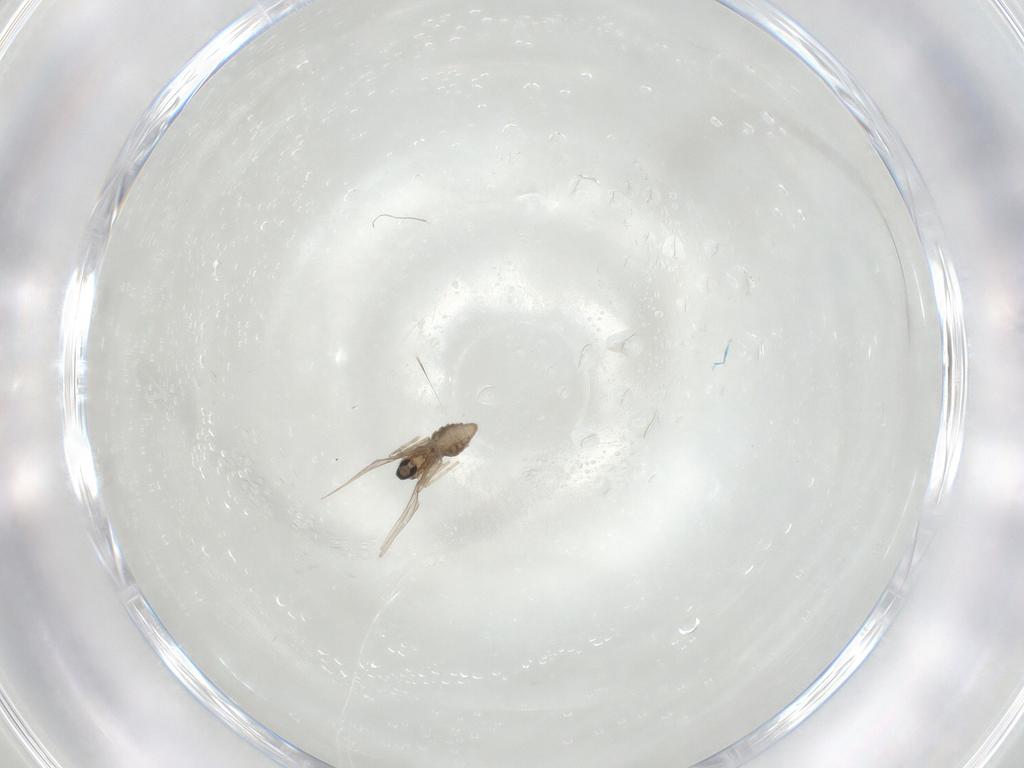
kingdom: Animalia
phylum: Arthropoda
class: Insecta
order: Diptera
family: Cecidomyiidae
